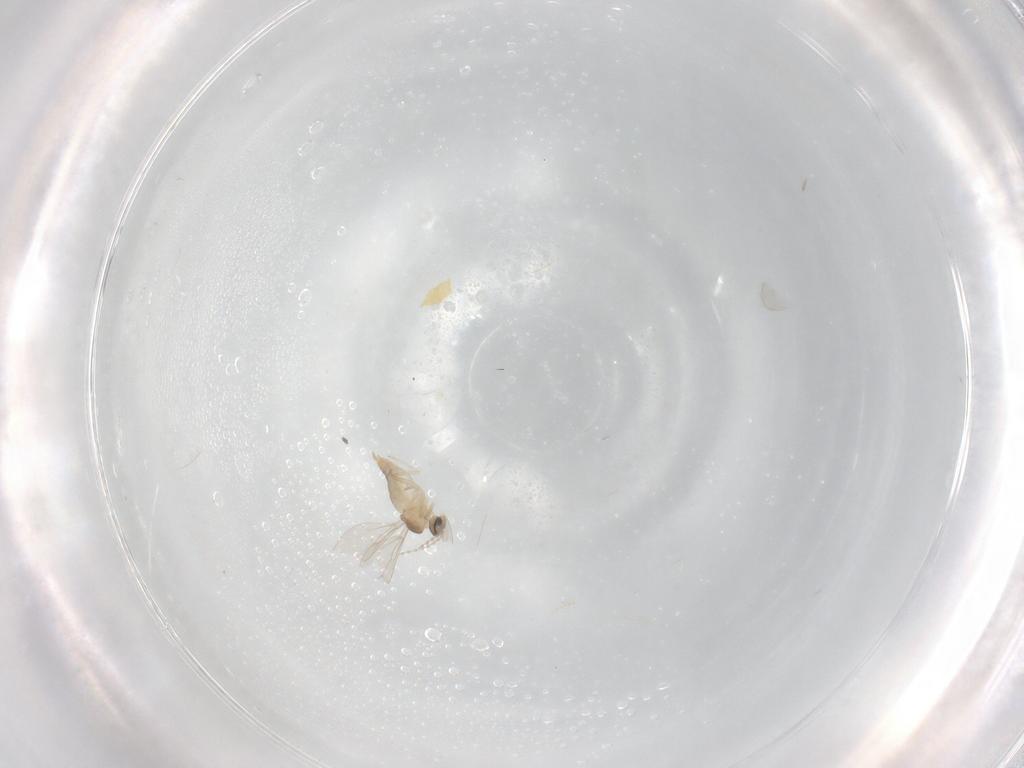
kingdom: Animalia
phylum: Arthropoda
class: Insecta
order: Diptera
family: Cecidomyiidae
